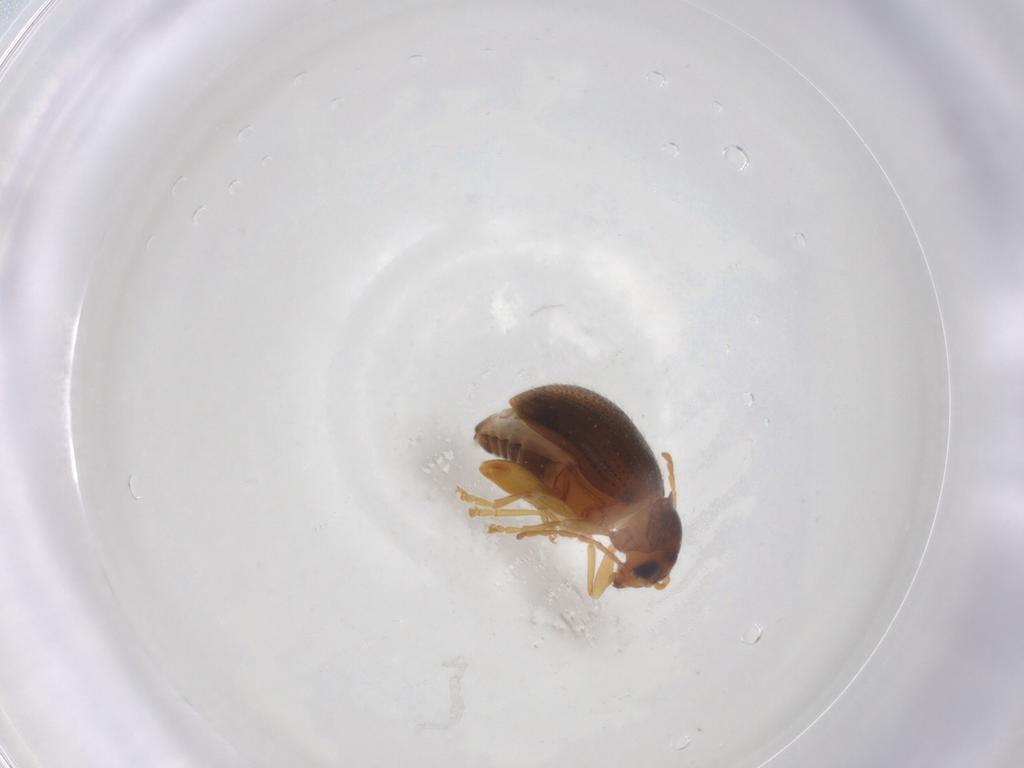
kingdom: Animalia
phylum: Arthropoda
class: Insecta
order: Coleoptera
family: Chrysomelidae
